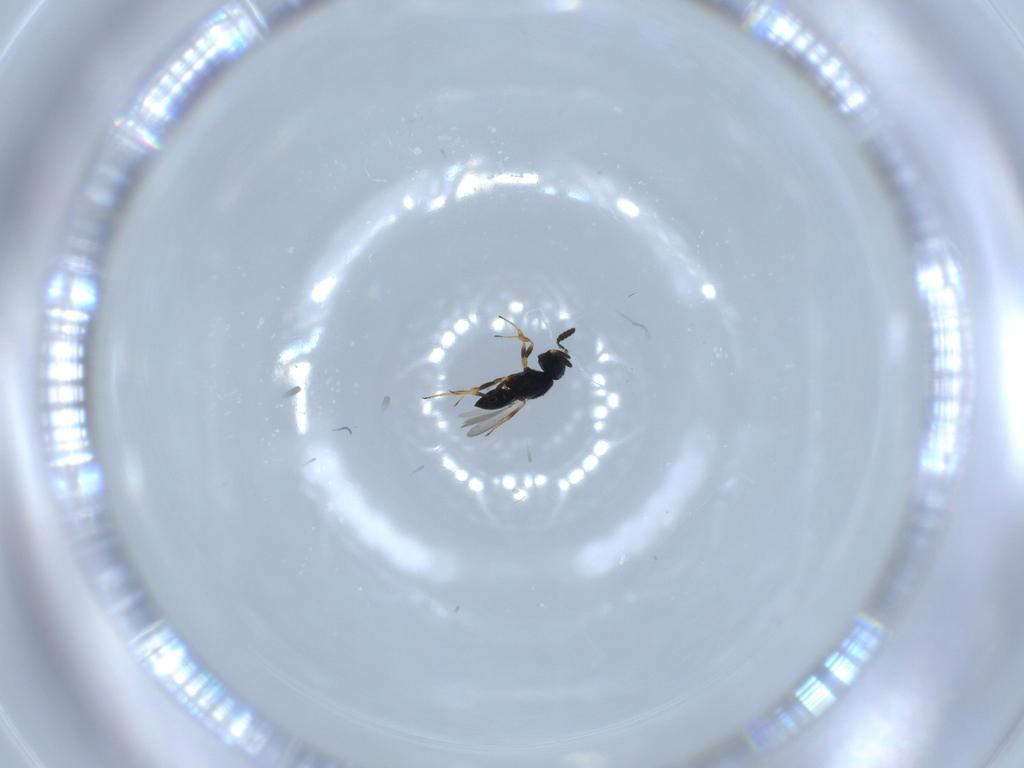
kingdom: Animalia
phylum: Arthropoda
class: Insecta
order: Hymenoptera
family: Scelionidae
